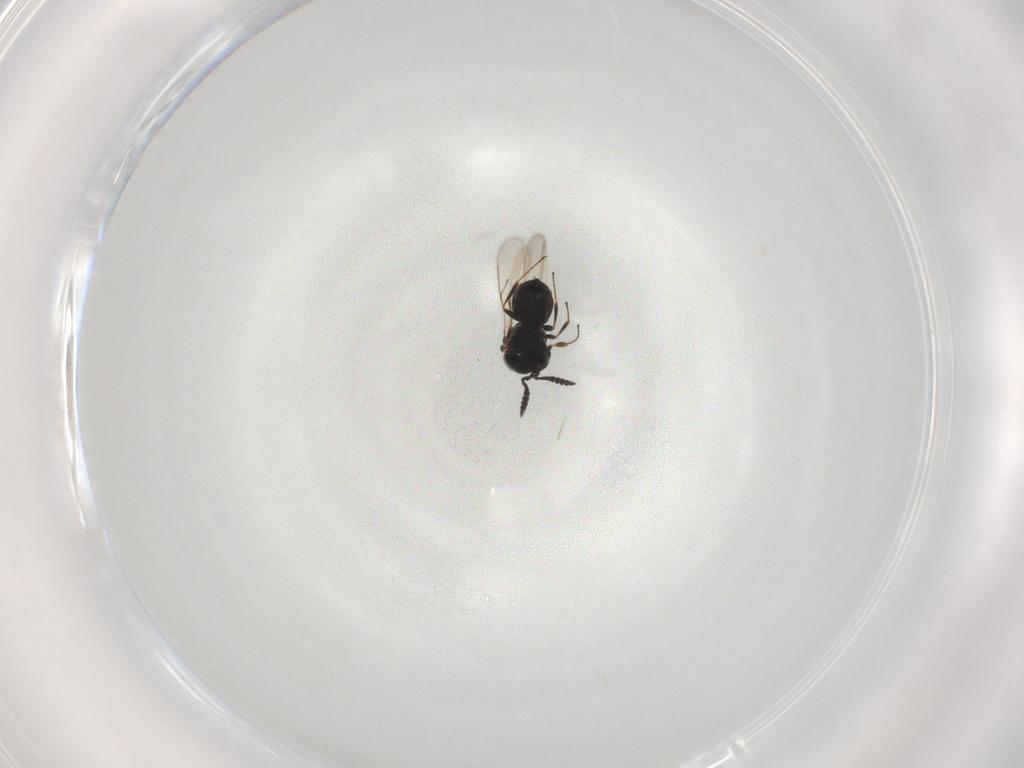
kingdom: Animalia
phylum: Arthropoda
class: Insecta
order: Hymenoptera
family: Scelionidae
